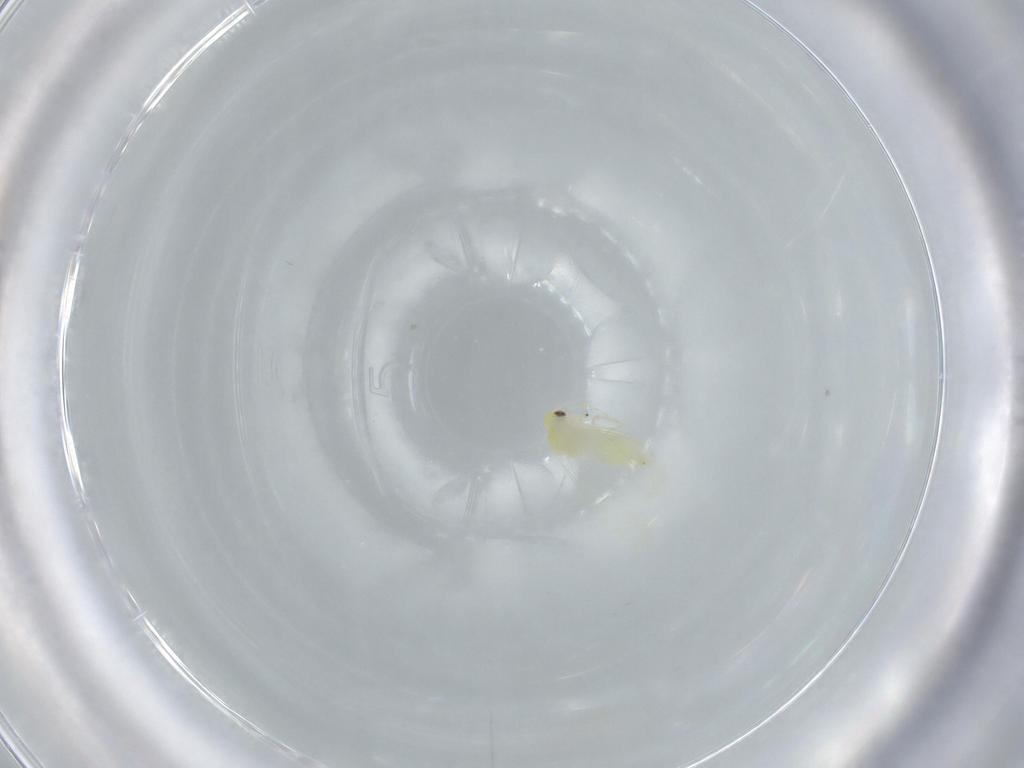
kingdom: Animalia
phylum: Arthropoda
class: Insecta
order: Hemiptera
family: Aleyrodidae
